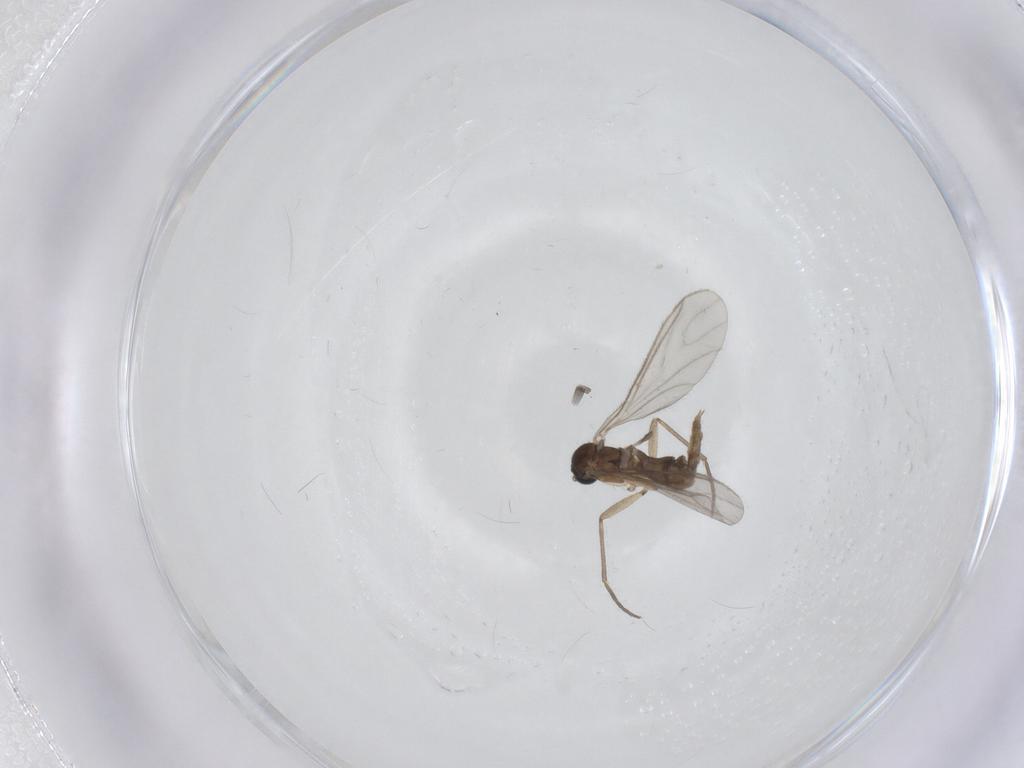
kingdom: Animalia
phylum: Arthropoda
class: Insecta
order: Diptera
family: Sciaridae
